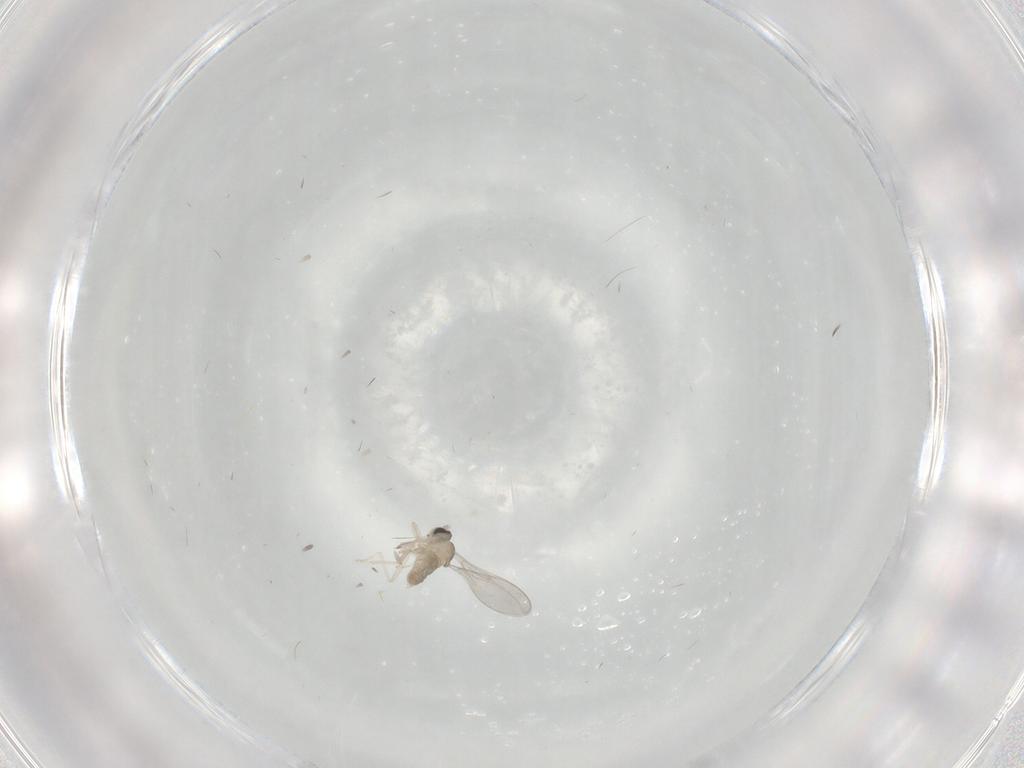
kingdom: Animalia
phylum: Arthropoda
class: Insecta
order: Diptera
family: Cecidomyiidae
